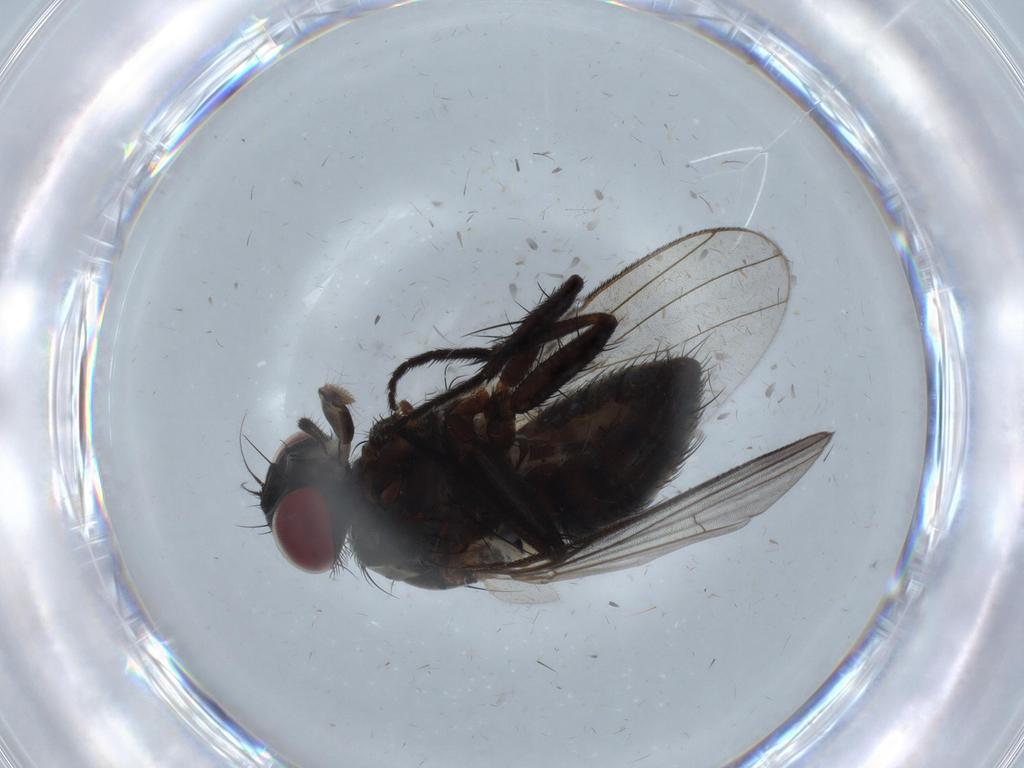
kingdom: Animalia
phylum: Arthropoda
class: Insecta
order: Diptera
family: Muscidae
